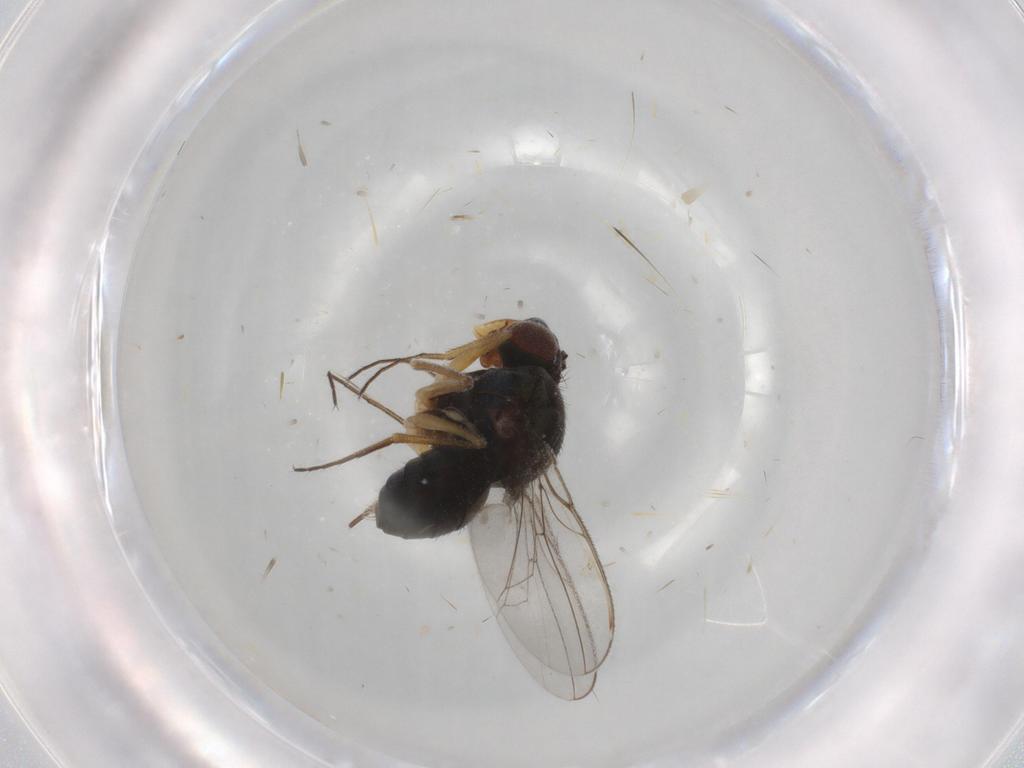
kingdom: Animalia
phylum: Arthropoda
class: Insecta
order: Diptera
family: Ephydridae
